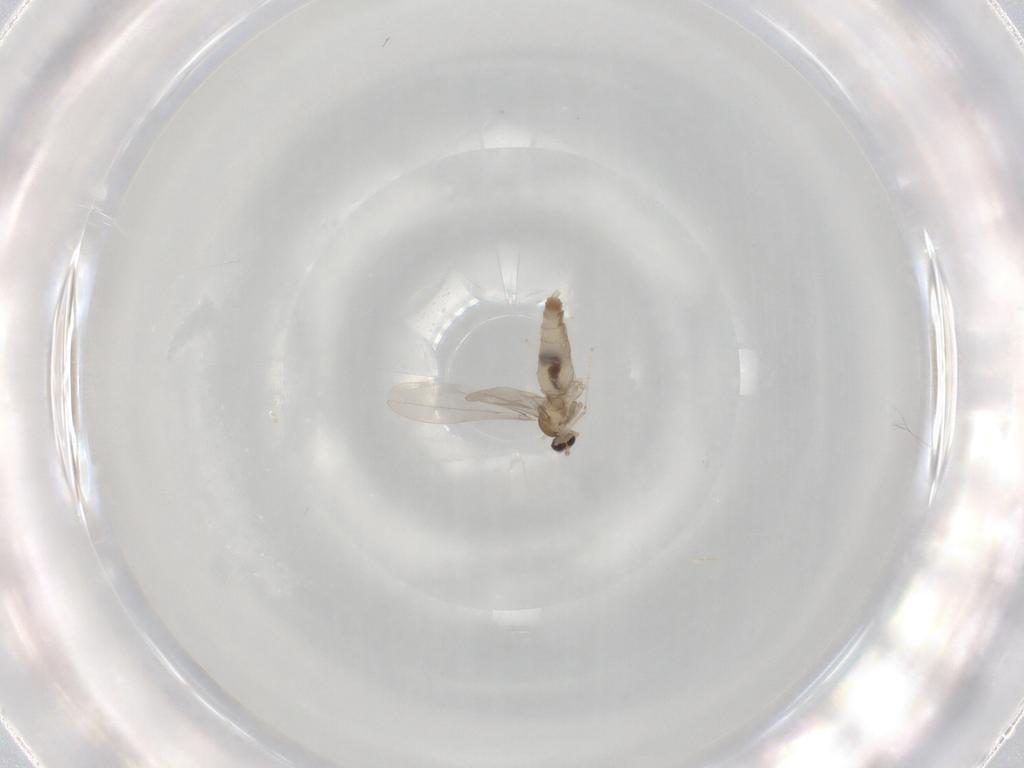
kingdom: Animalia
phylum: Arthropoda
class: Insecta
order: Diptera
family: Cecidomyiidae
